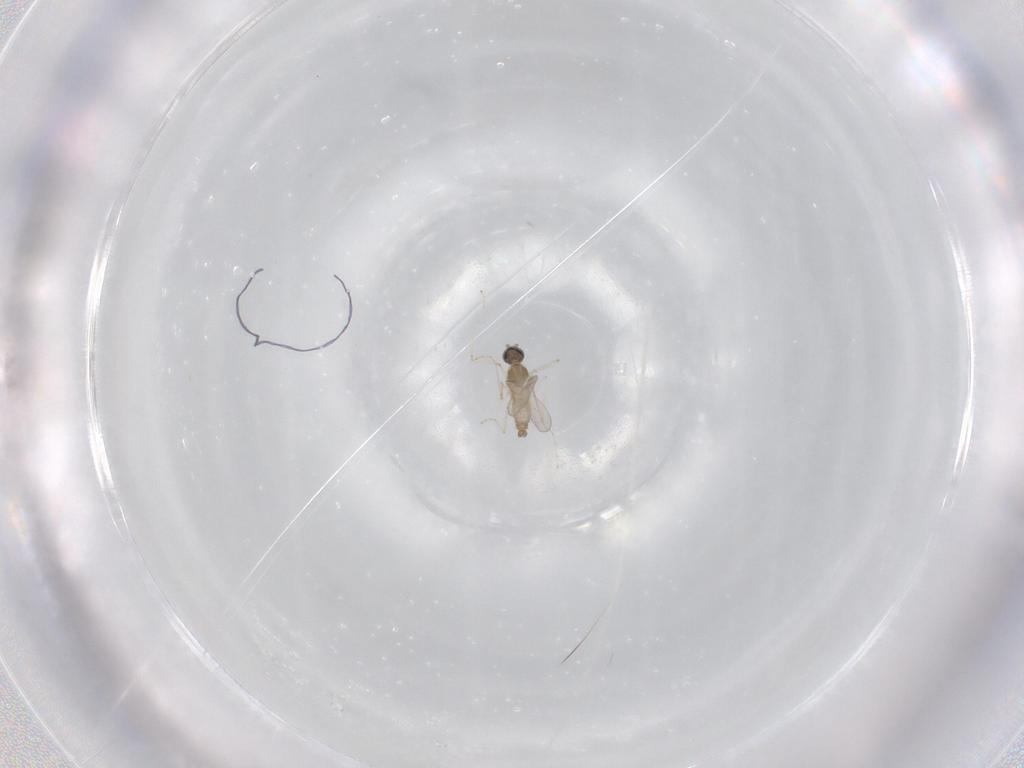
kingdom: Animalia
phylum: Arthropoda
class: Insecta
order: Diptera
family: Cecidomyiidae
